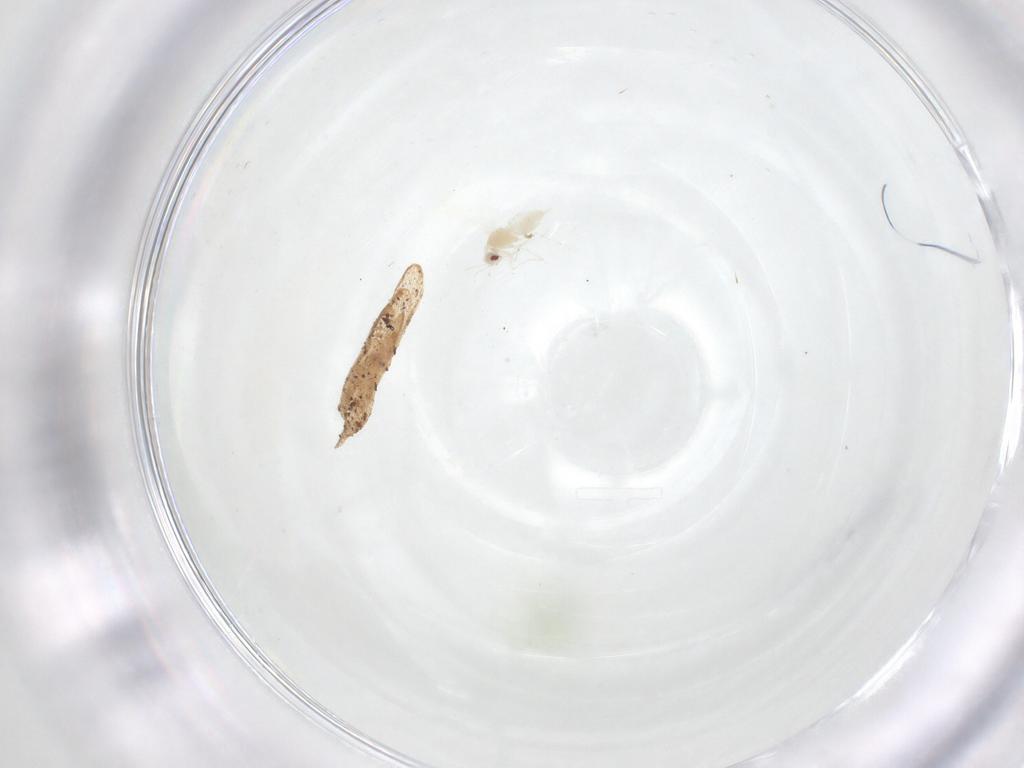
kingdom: Animalia
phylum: Arthropoda
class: Insecta
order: Hemiptera
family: Aleyrodidae
